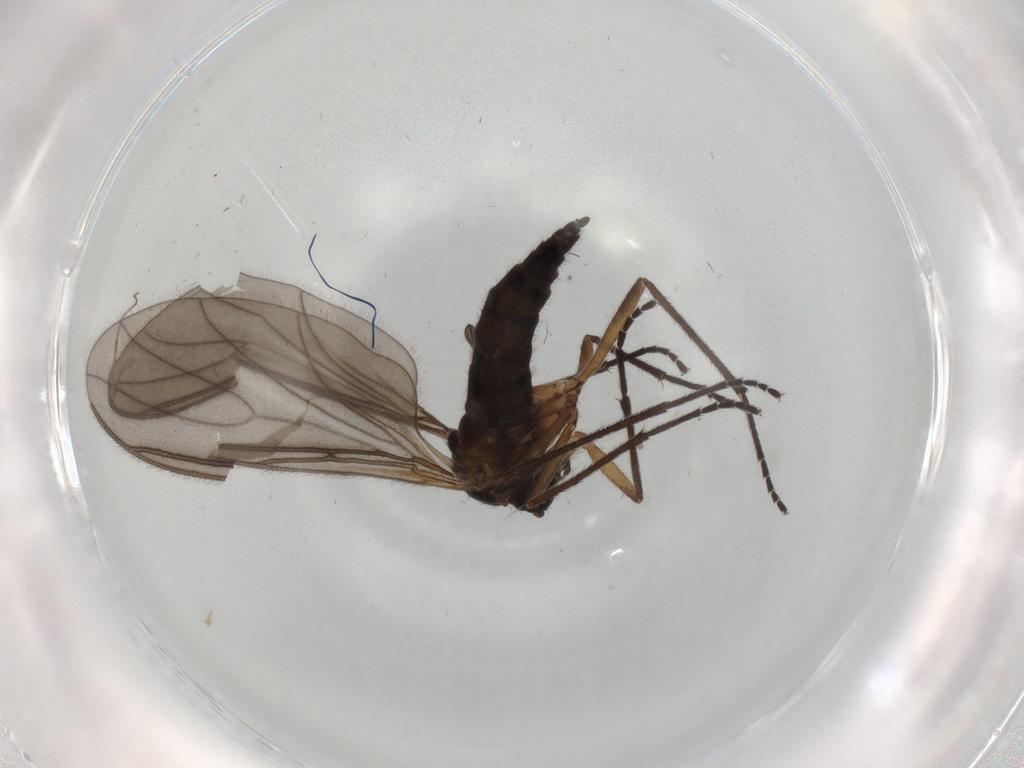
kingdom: Animalia
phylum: Arthropoda
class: Insecta
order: Diptera
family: Sciaridae
